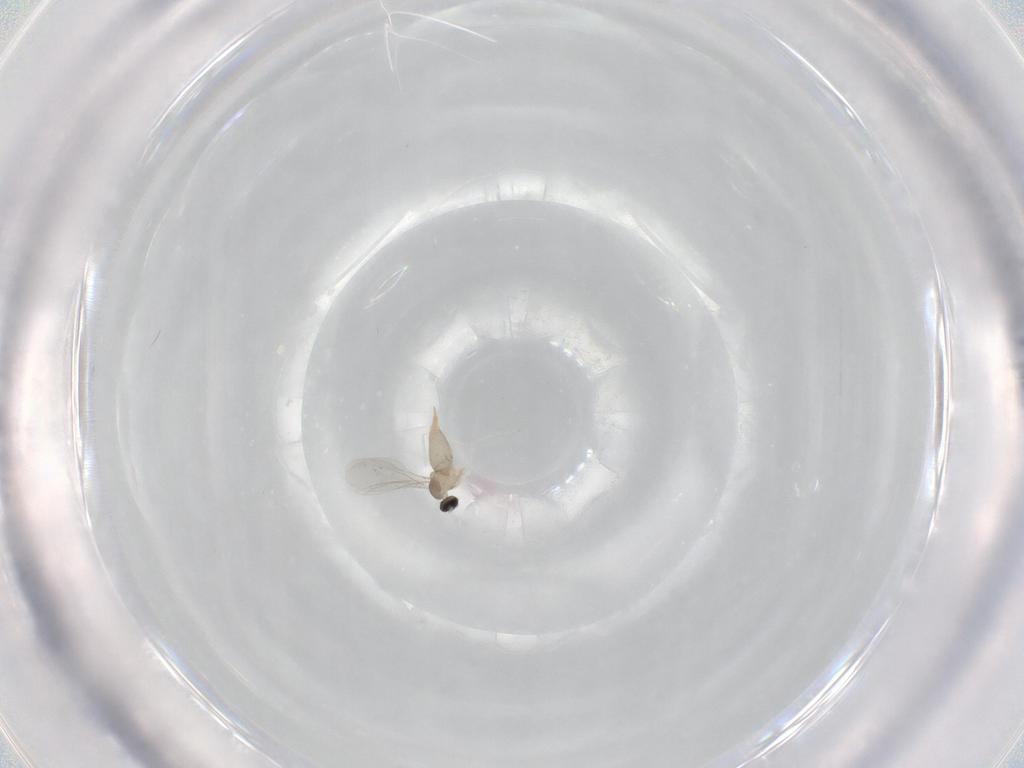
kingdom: Animalia
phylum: Arthropoda
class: Insecta
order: Diptera
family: Cecidomyiidae
